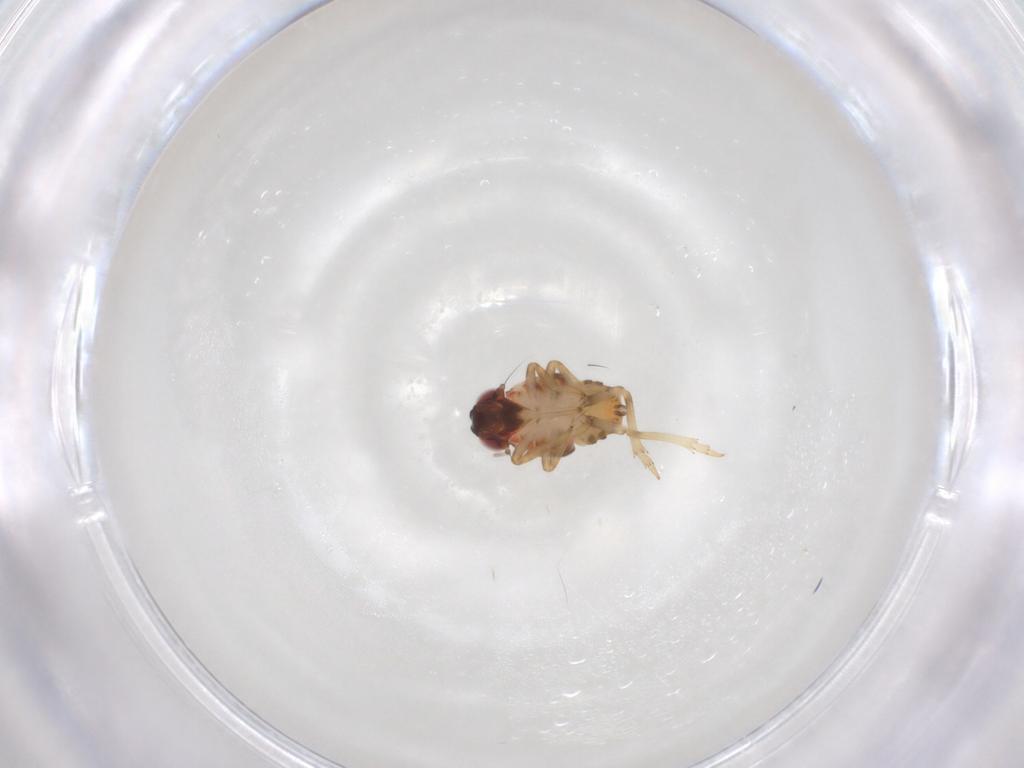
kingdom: Animalia
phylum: Arthropoda
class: Insecta
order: Hemiptera
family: Issidae
